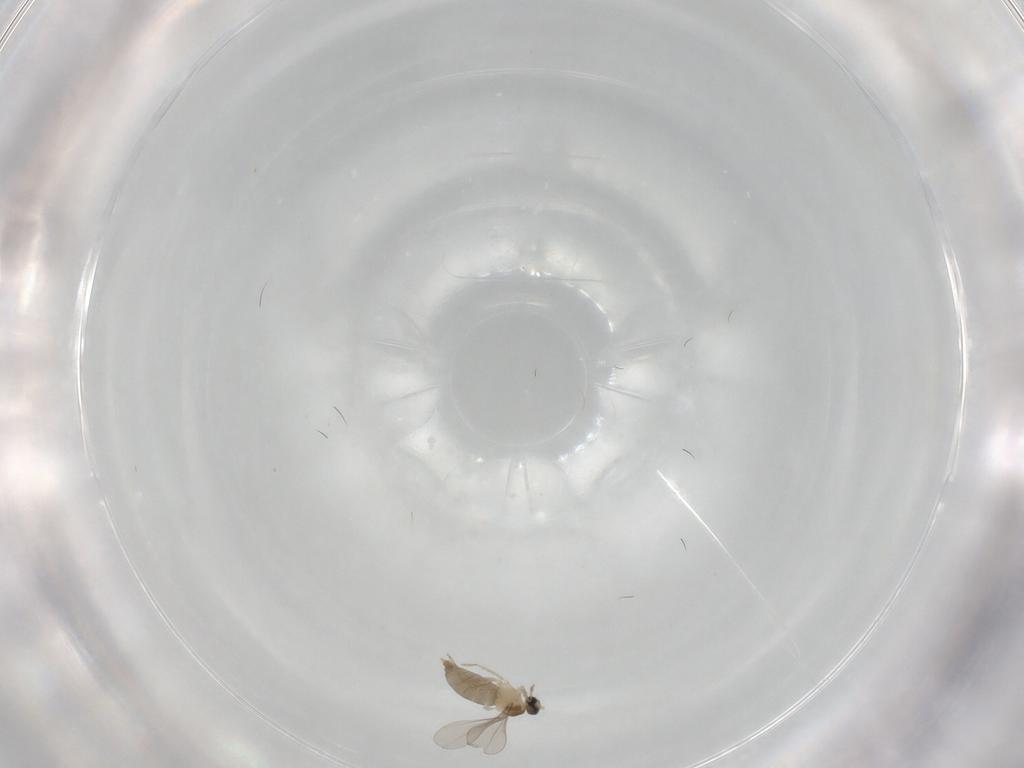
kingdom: Animalia
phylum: Arthropoda
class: Insecta
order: Diptera
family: Cecidomyiidae
